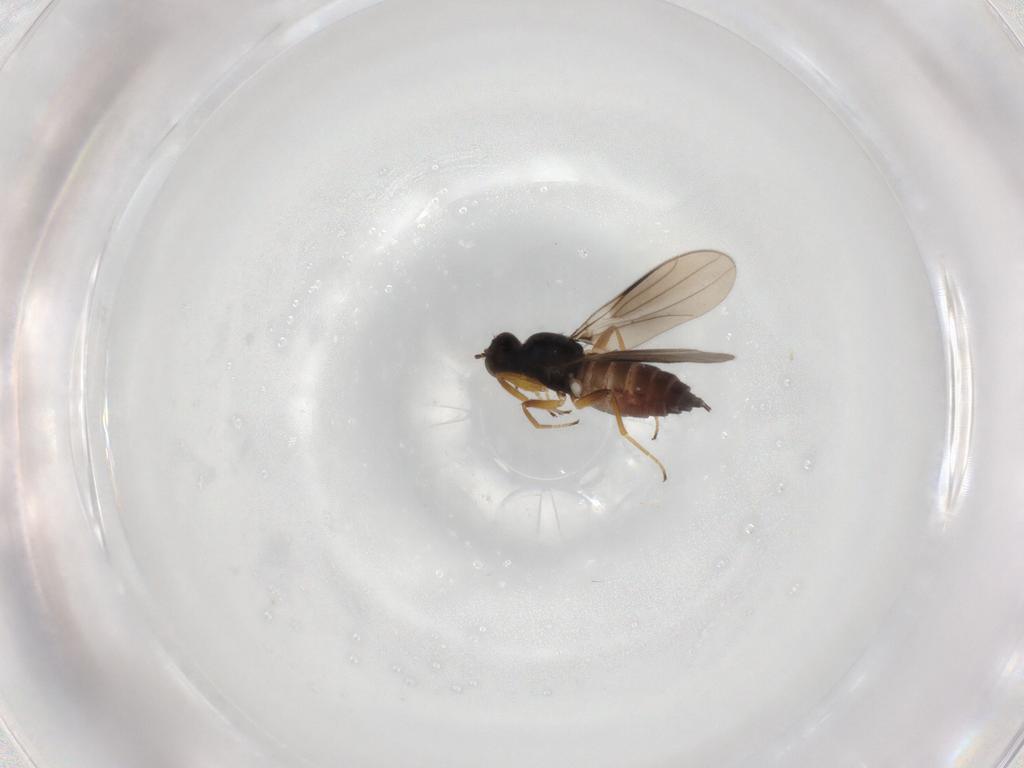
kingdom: Animalia
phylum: Arthropoda
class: Insecta
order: Diptera
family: Hybotidae
